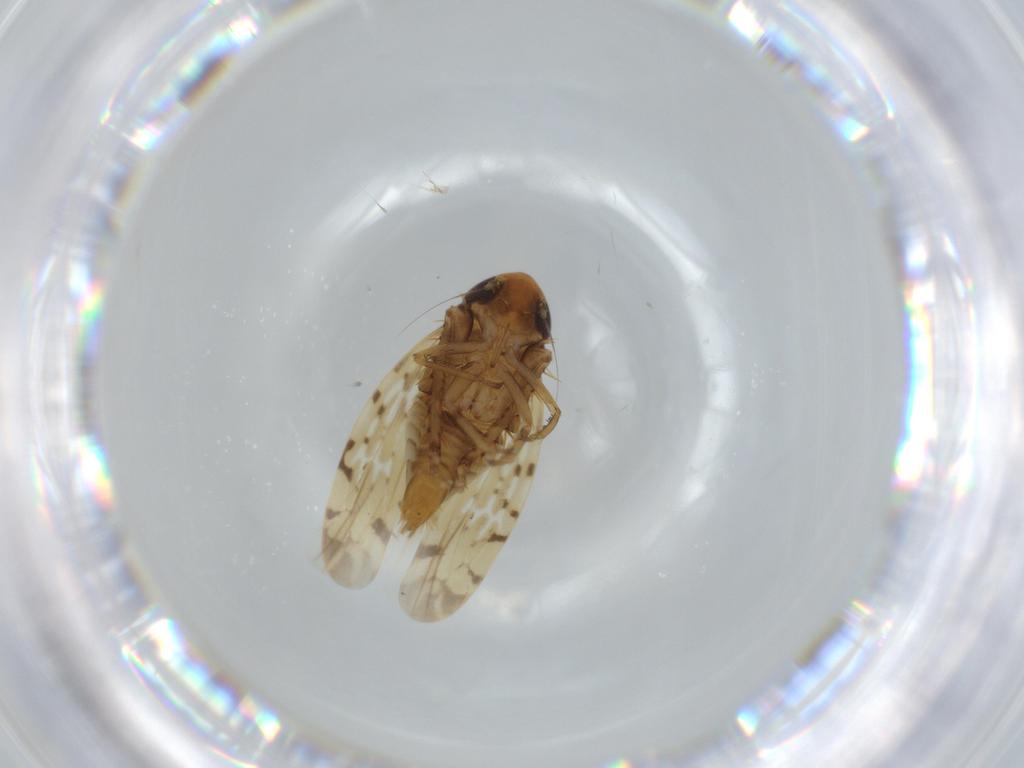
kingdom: Animalia
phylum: Arthropoda
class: Insecta
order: Hemiptera
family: Cicadellidae
